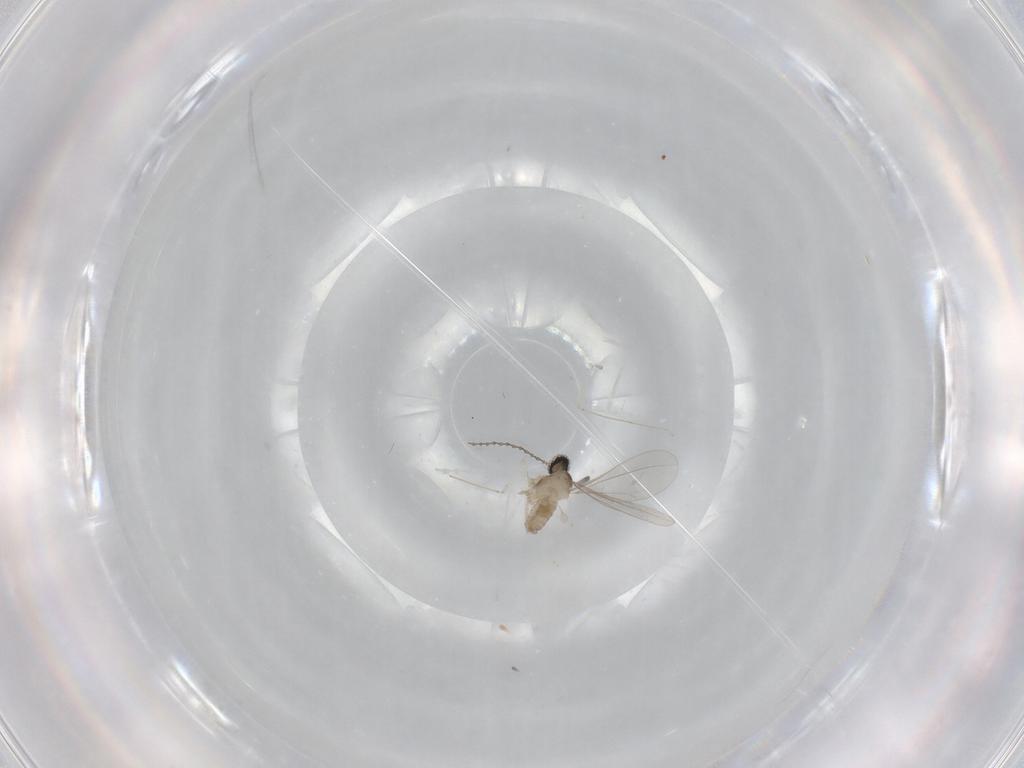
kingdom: Animalia
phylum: Arthropoda
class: Insecta
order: Diptera
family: Cecidomyiidae
